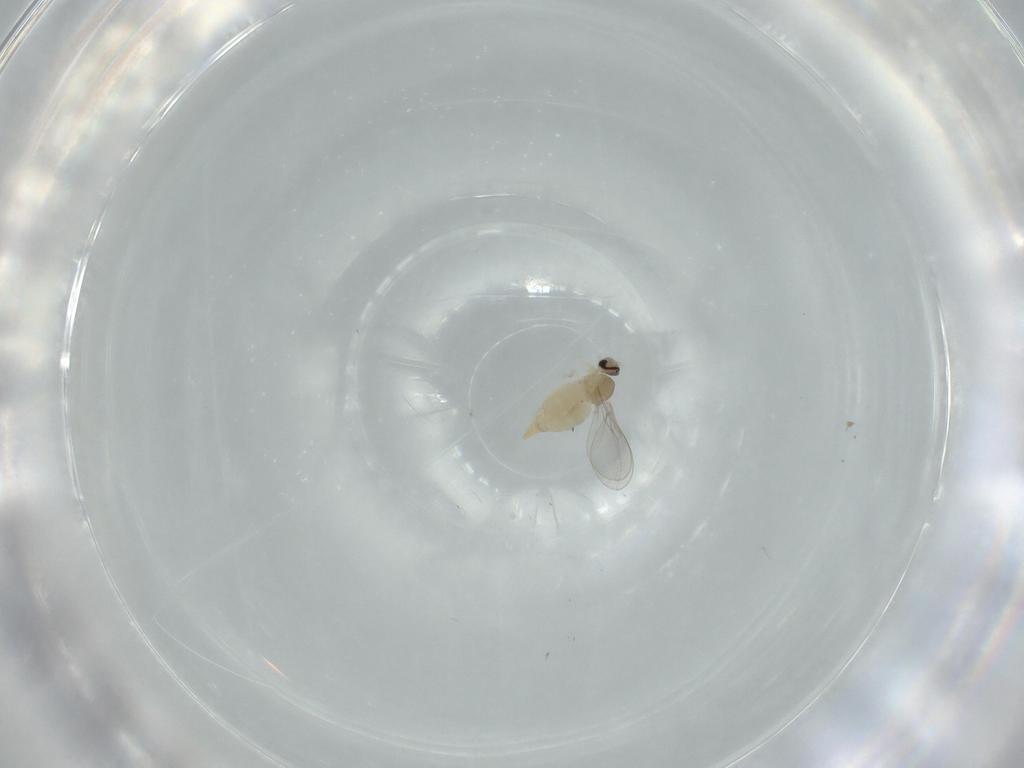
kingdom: Animalia
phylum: Arthropoda
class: Insecta
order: Diptera
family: Cecidomyiidae
